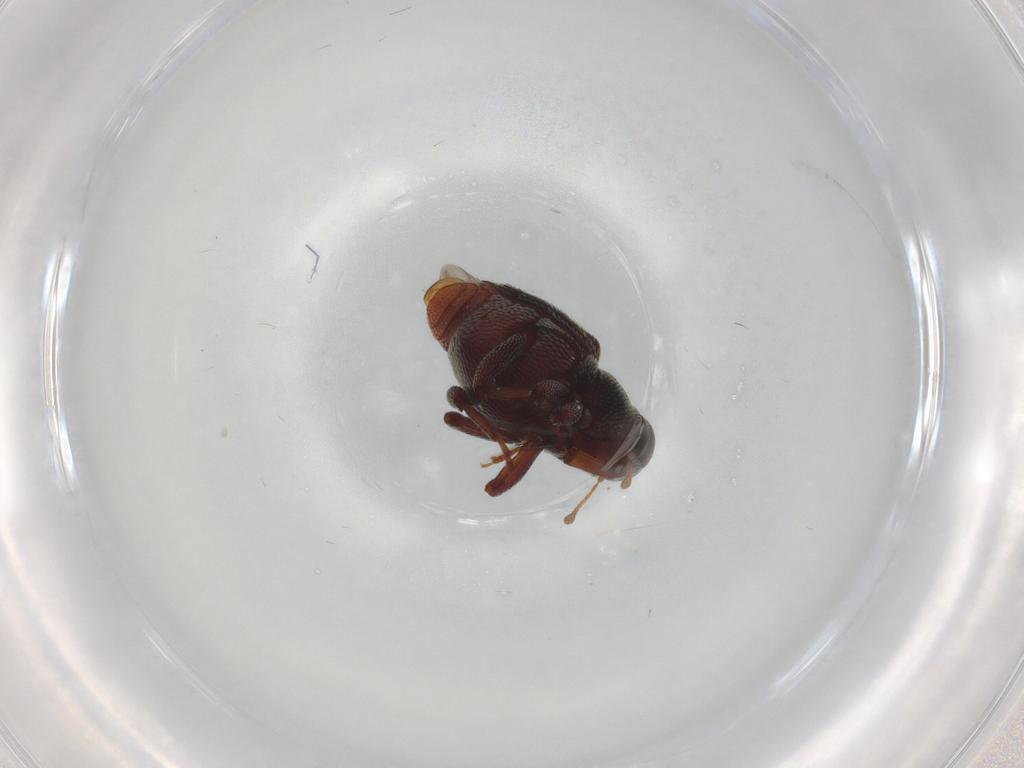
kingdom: Animalia
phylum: Arthropoda
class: Insecta
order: Coleoptera
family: Curculionidae
